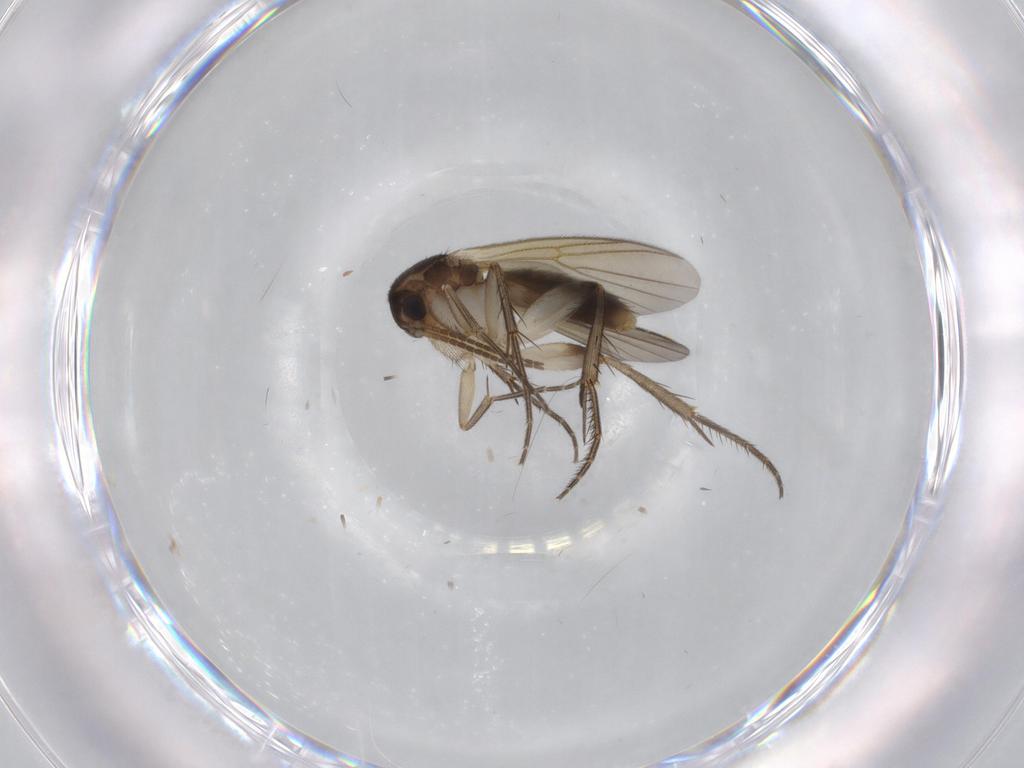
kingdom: Animalia
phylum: Arthropoda
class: Insecta
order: Diptera
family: Mycetophilidae
